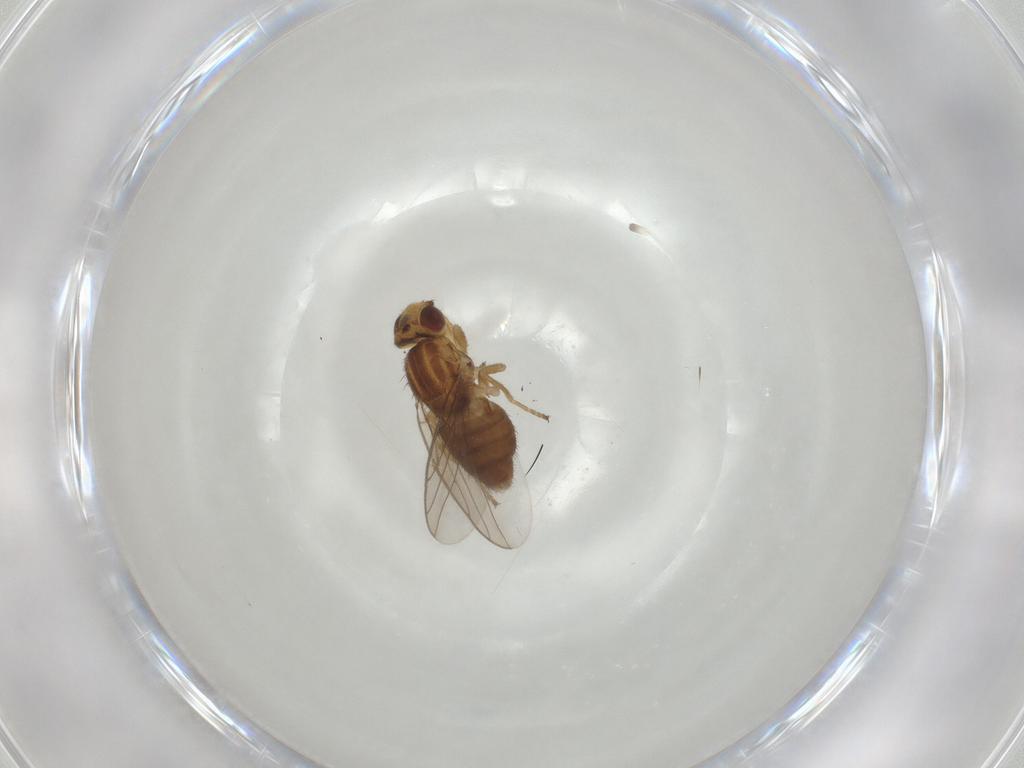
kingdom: Animalia
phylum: Arthropoda
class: Insecta
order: Diptera
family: Chloropidae
